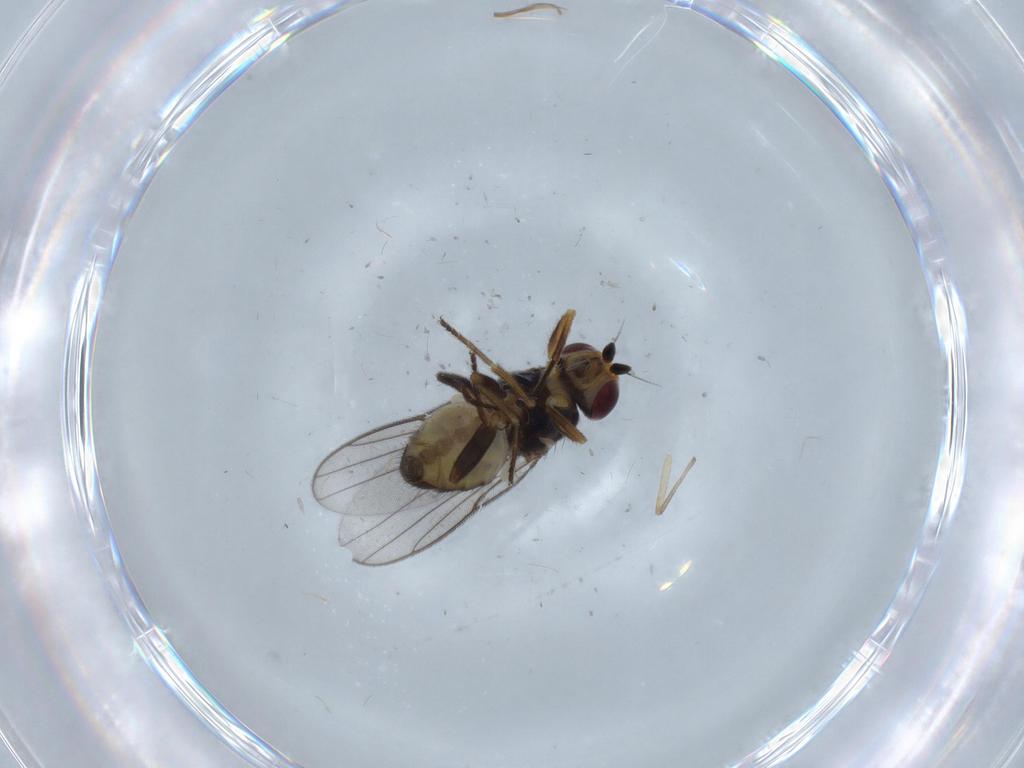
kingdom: Animalia
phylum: Arthropoda
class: Insecta
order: Diptera
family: Chloropidae
